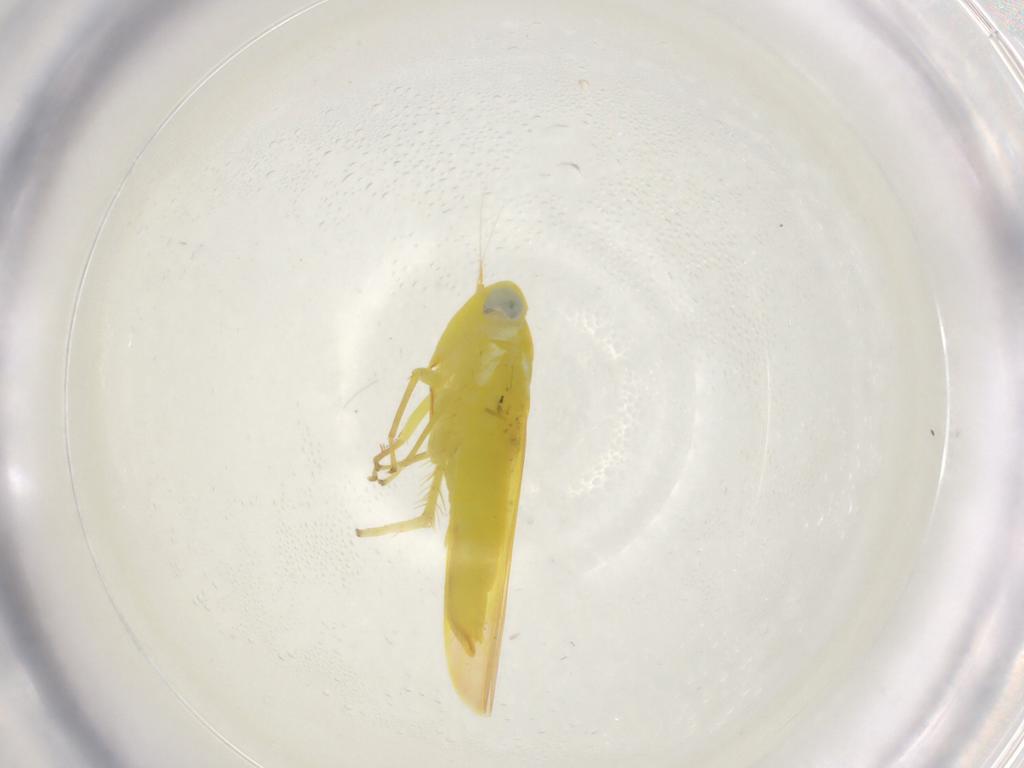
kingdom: Animalia
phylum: Arthropoda
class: Insecta
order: Hemiptera
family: Cicadellidae
